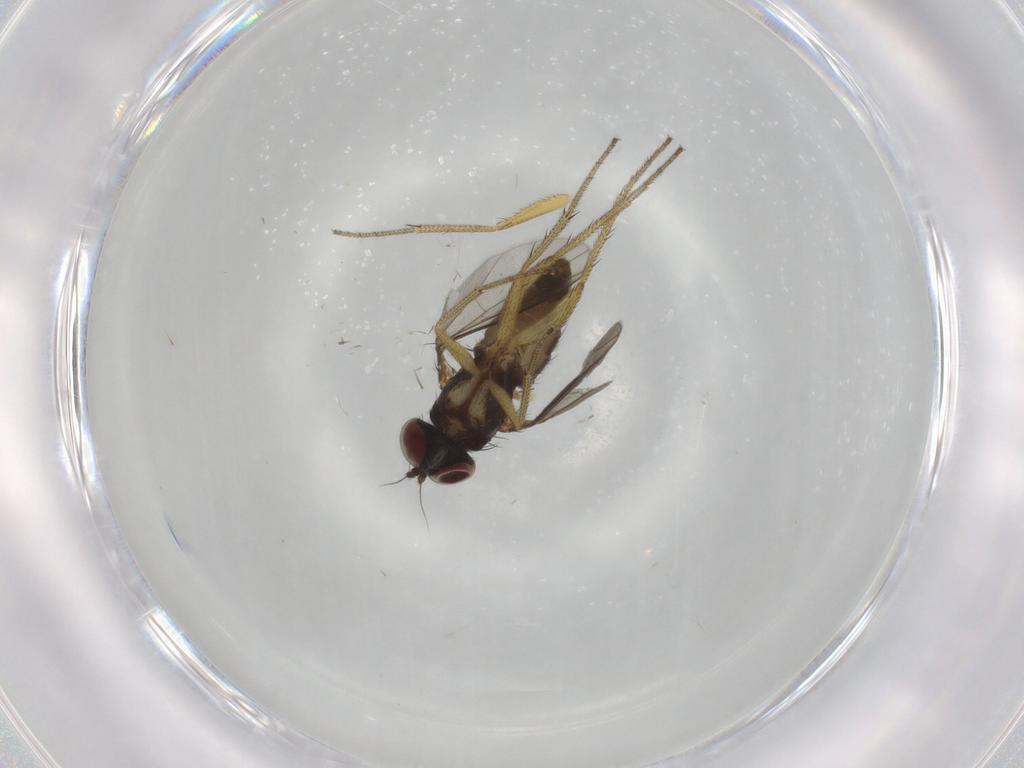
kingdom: Animalia
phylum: Arthropoda
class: Insecta
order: Diptera
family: Dolichopodidae
